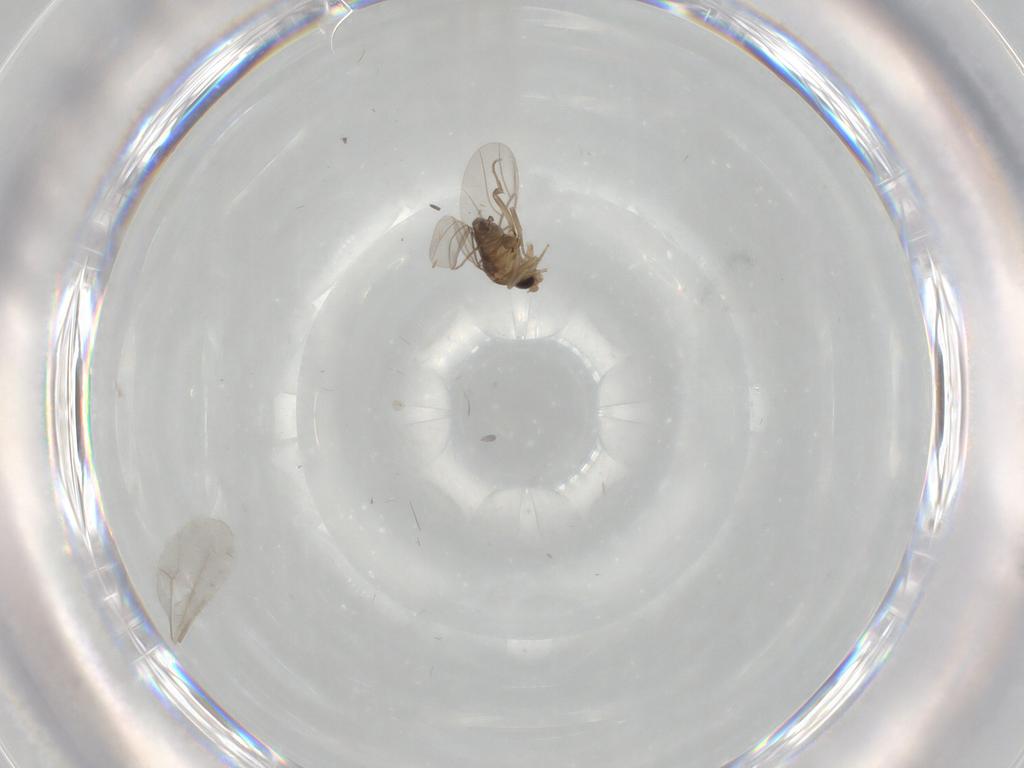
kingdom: Animalia
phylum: Arthropoda
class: Insecta
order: Diptera
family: Cecidomyiidae
